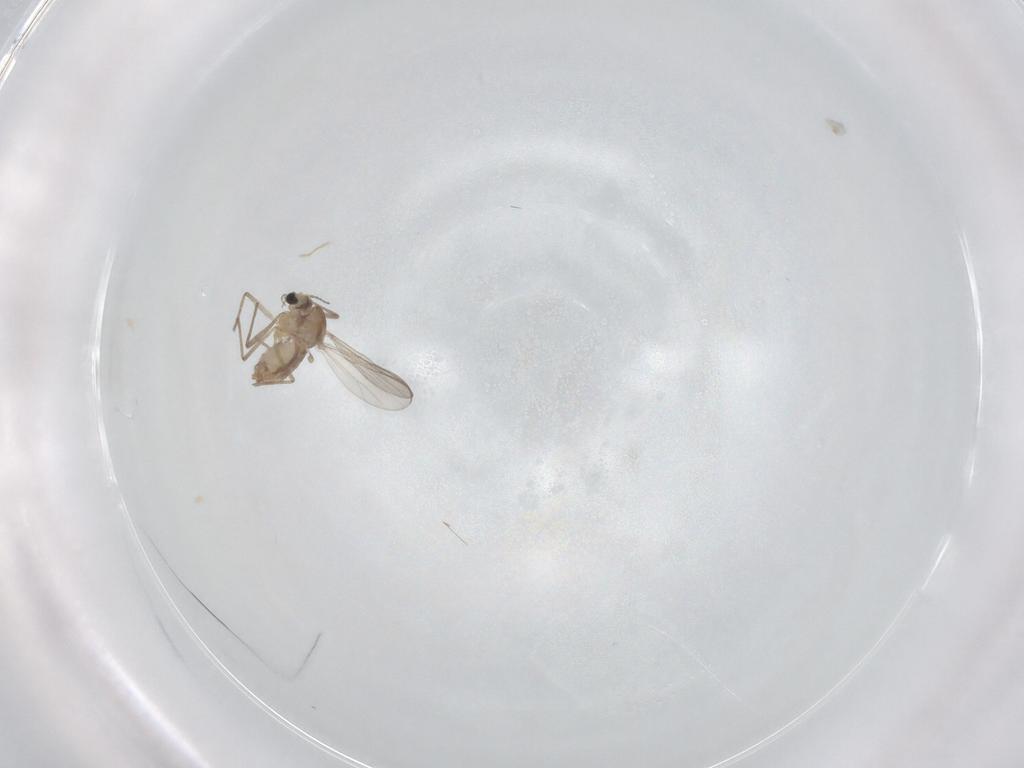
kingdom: Animalia
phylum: Arthropoda
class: Insecta
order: Diptera
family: Chironomidae
